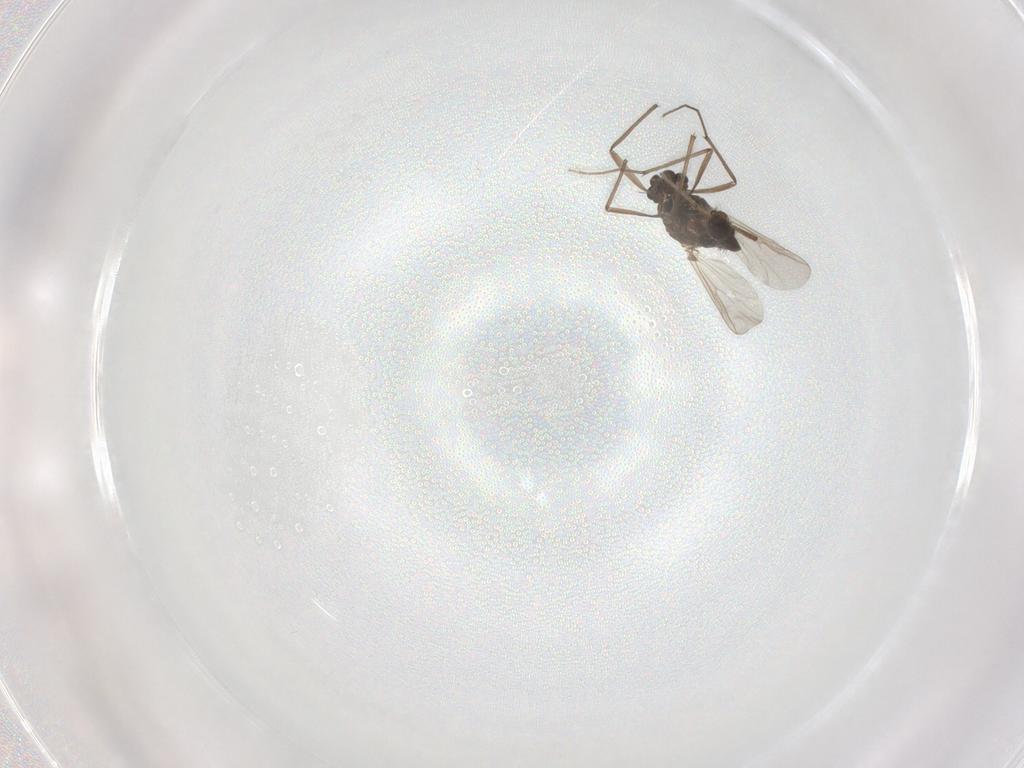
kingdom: Animalia
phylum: Arthropoda
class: Insecta
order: Diptera
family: Chironomidae
